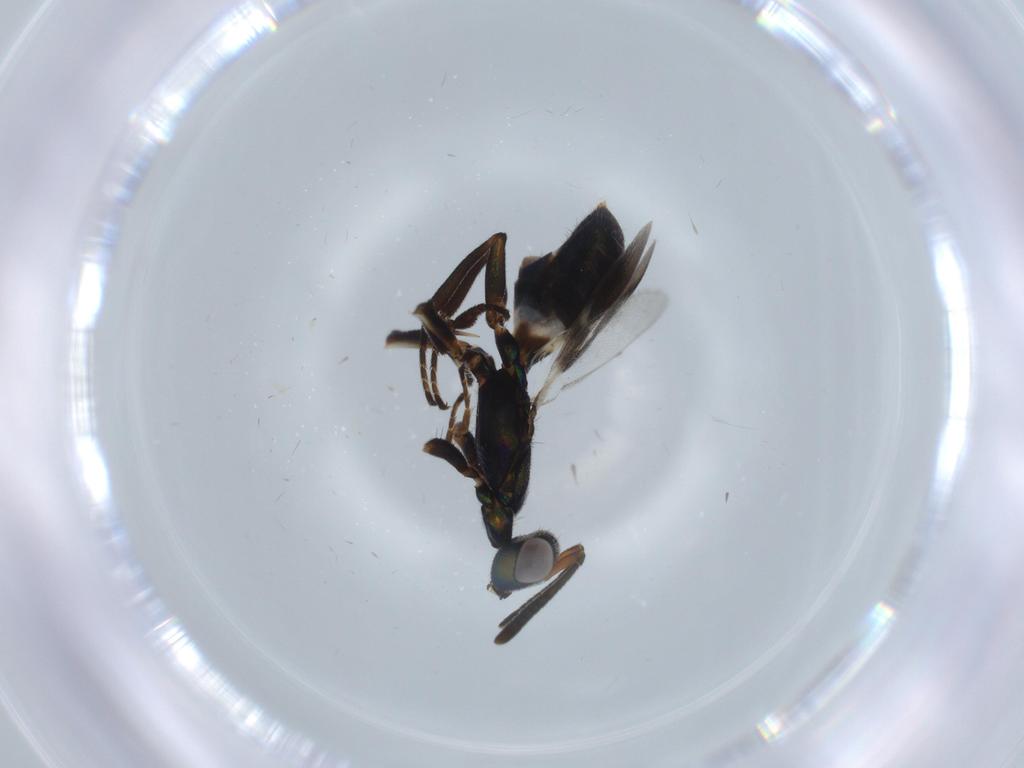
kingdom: Animalia
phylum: Arthropoda
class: Insecta
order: Hymenoptera
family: Eupelmidae
